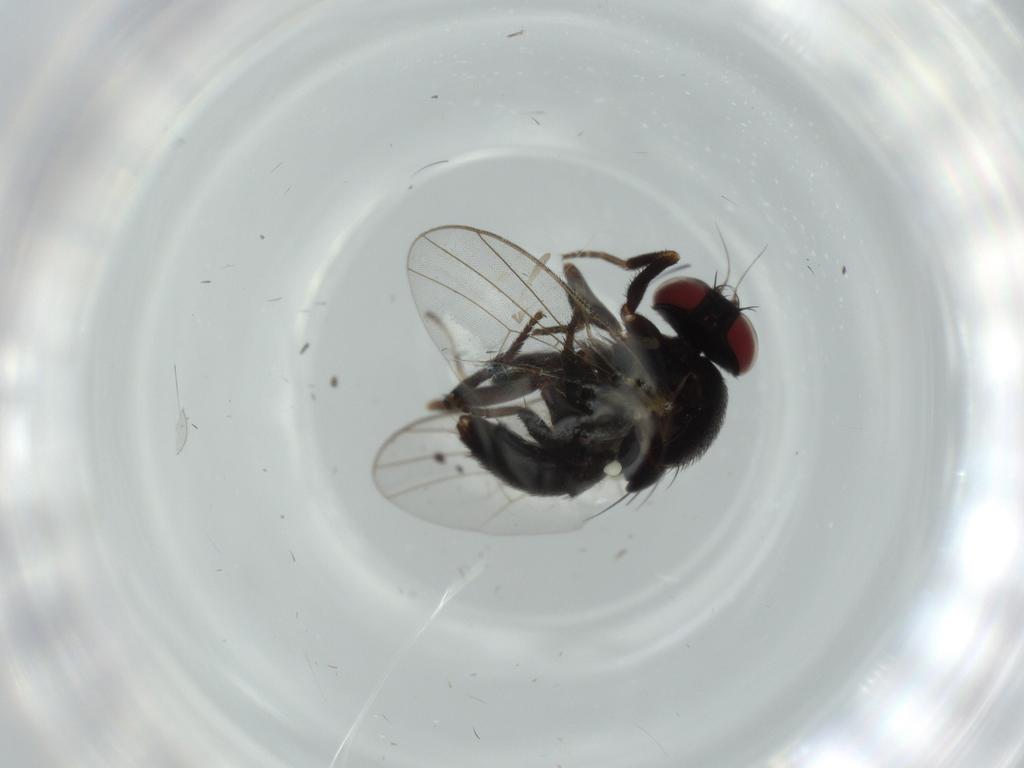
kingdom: Animalia
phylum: Arthropoda
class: Insecta
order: Diptera
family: Agromyzidae
